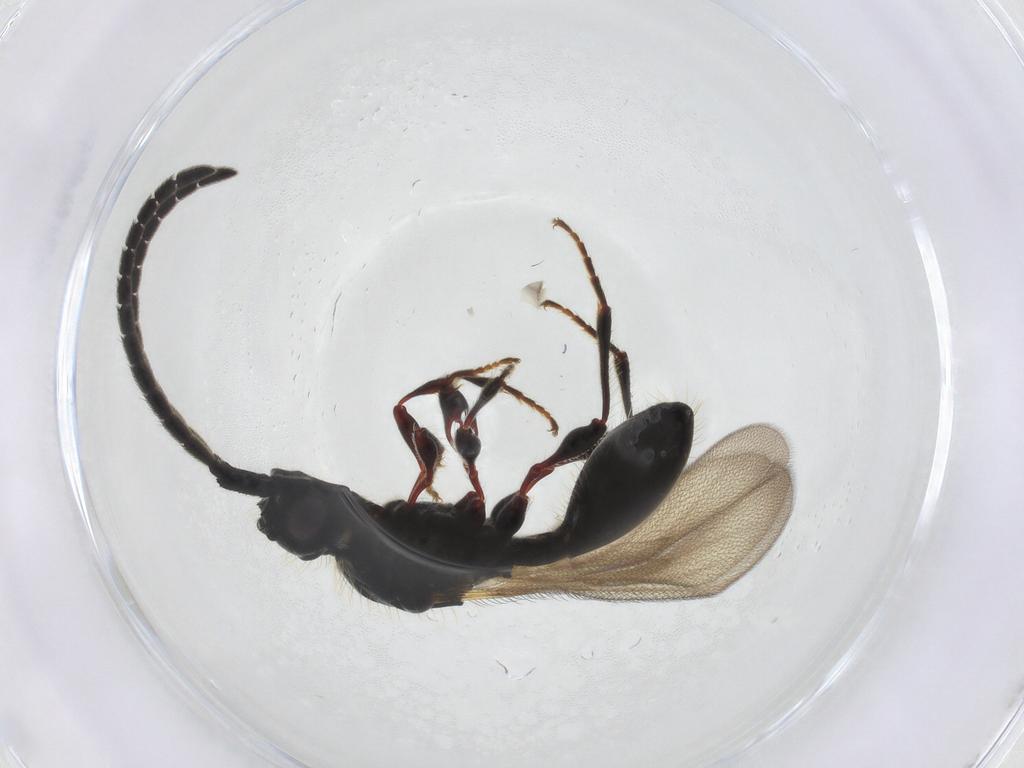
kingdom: Animalia
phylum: Arthropoda
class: Insecta
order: Hymenoptera
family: Diapriidae
